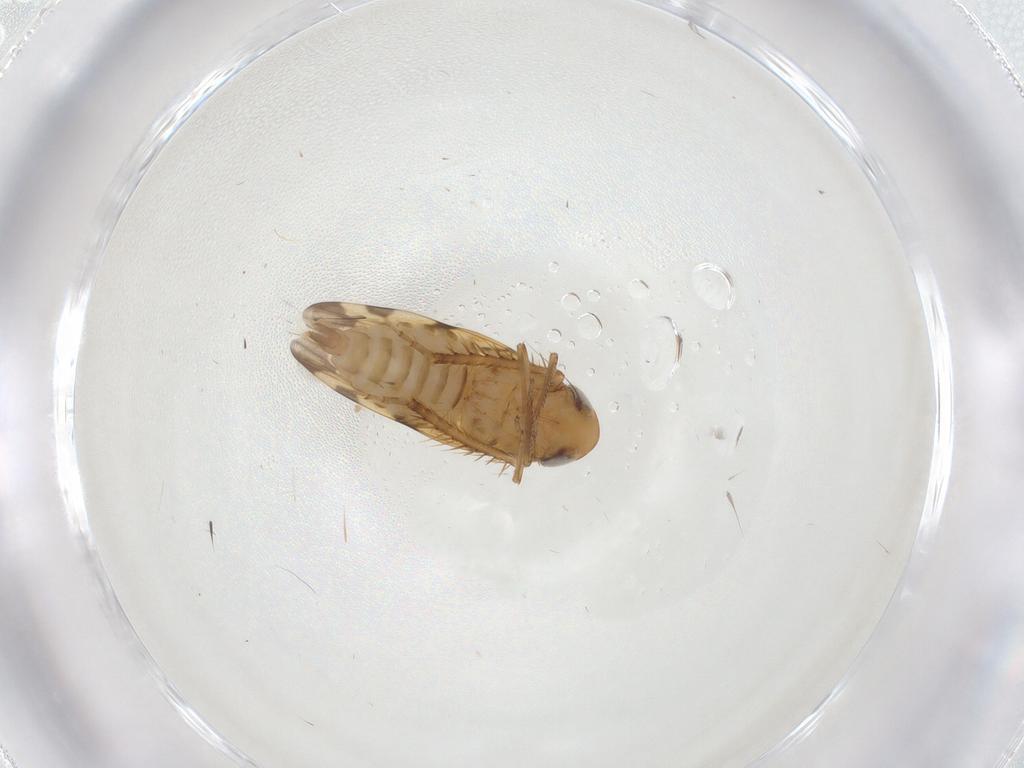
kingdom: Animalia
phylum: Arthropoda
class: Insecta
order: Hemiptera
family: Cicadellidae
